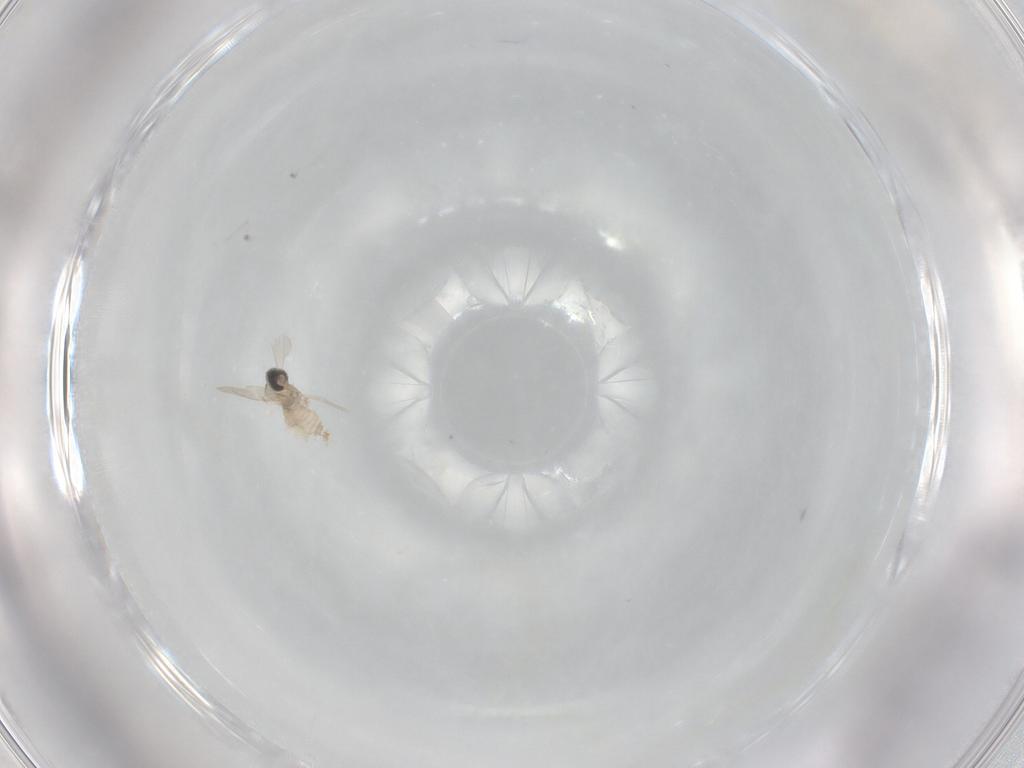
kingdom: Animalia
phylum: Arthropoda
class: Insecta
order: Diptera
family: Cecidomyiidae
